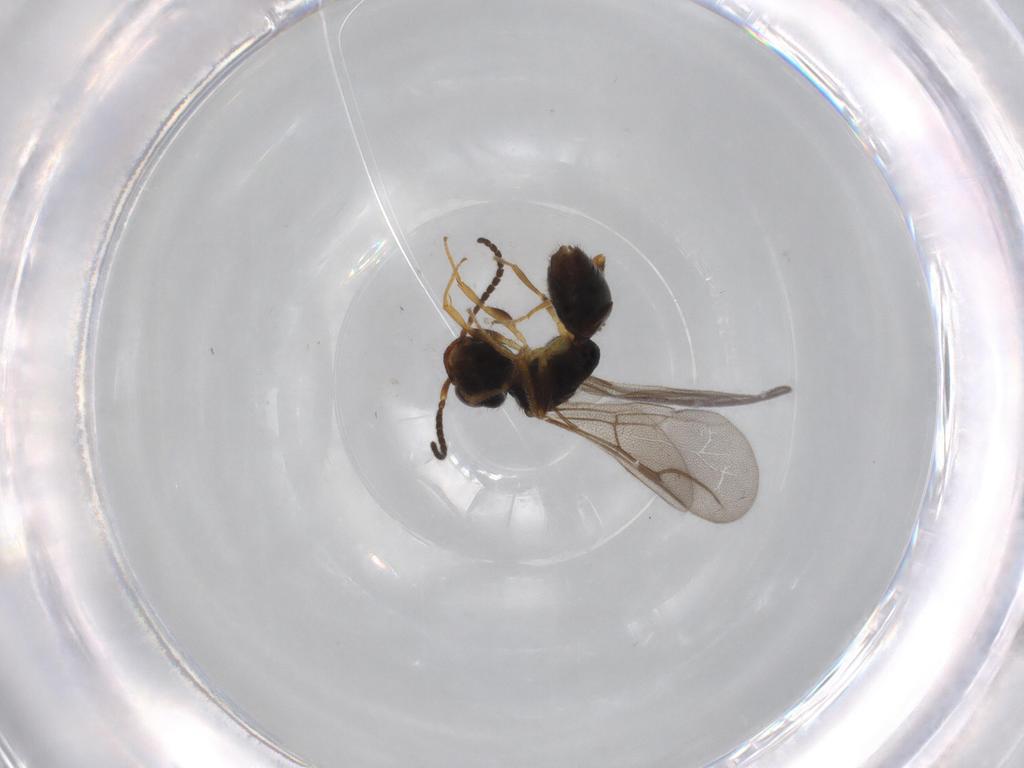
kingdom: Animalia
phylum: Arthropoda
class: Insecta
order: Hymenoptera
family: Bethylidae
